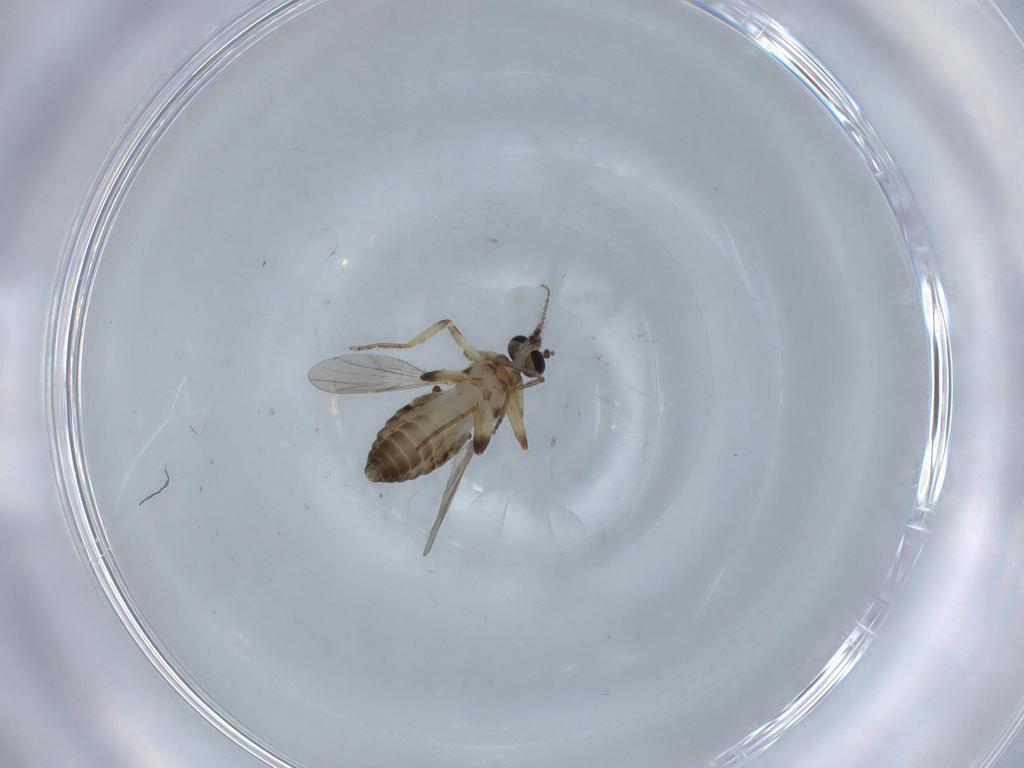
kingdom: Animalia
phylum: Arthropoda
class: Insecta
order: Diptera
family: Ceratopogonidae
